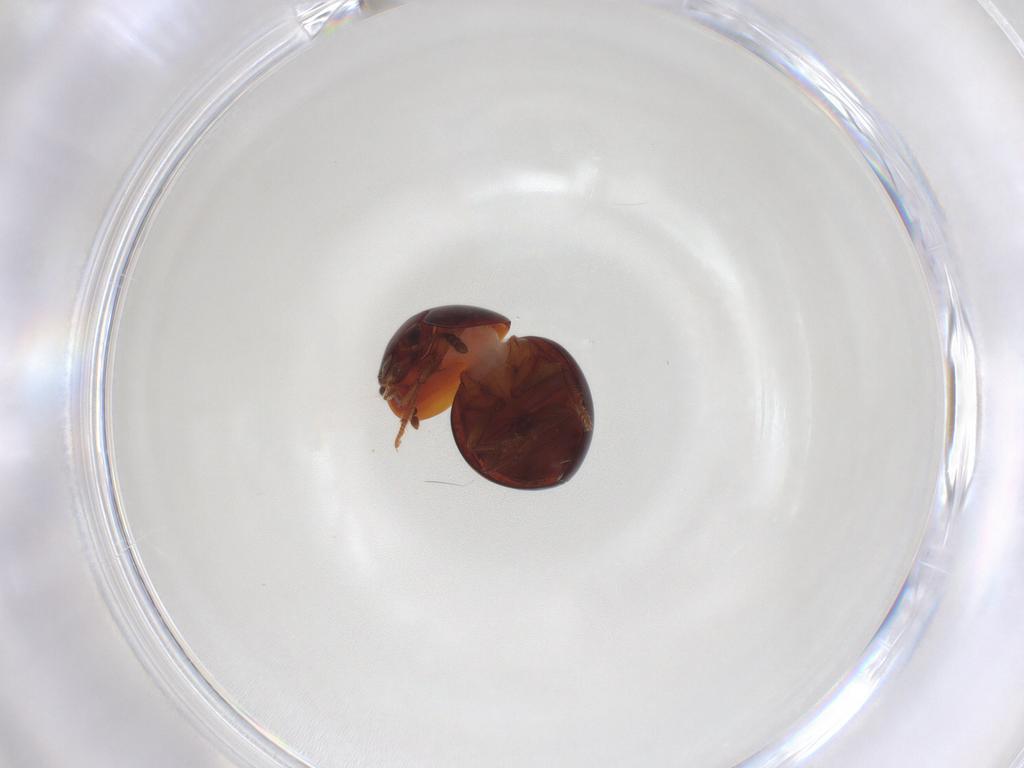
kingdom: Animalia
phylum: Arthropoda
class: Insecta
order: Coleoptera
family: Leiodidae
